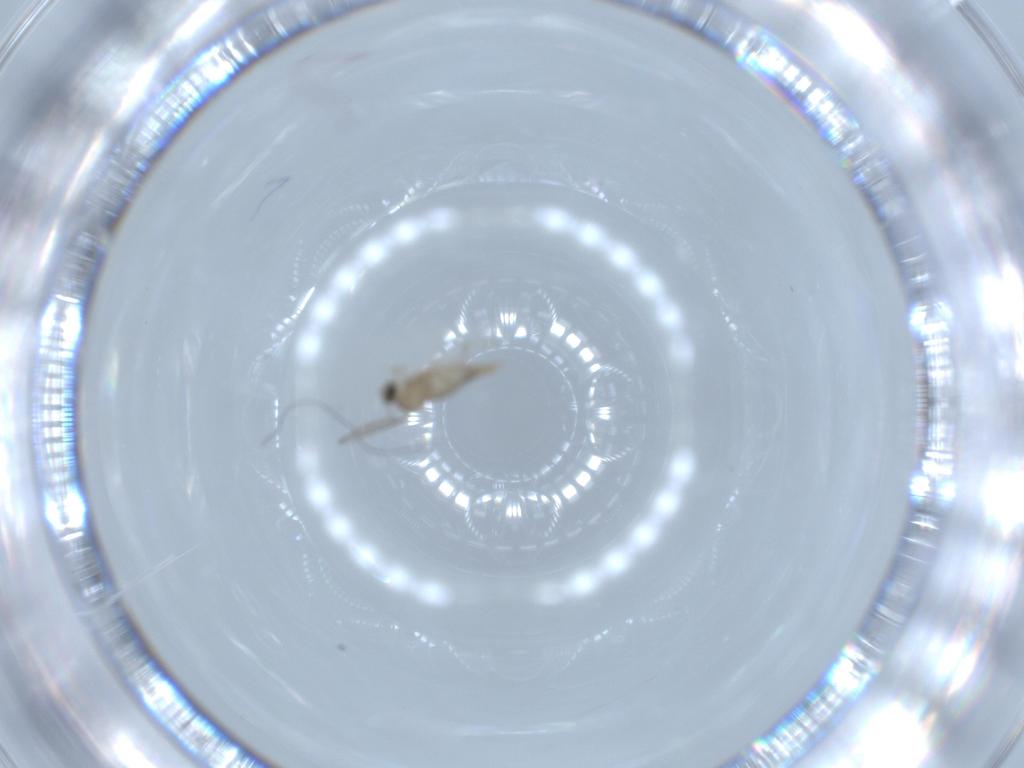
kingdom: Animalia
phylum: Arthropoda
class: Insecta
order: Diptera
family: Cecidomyiidae
